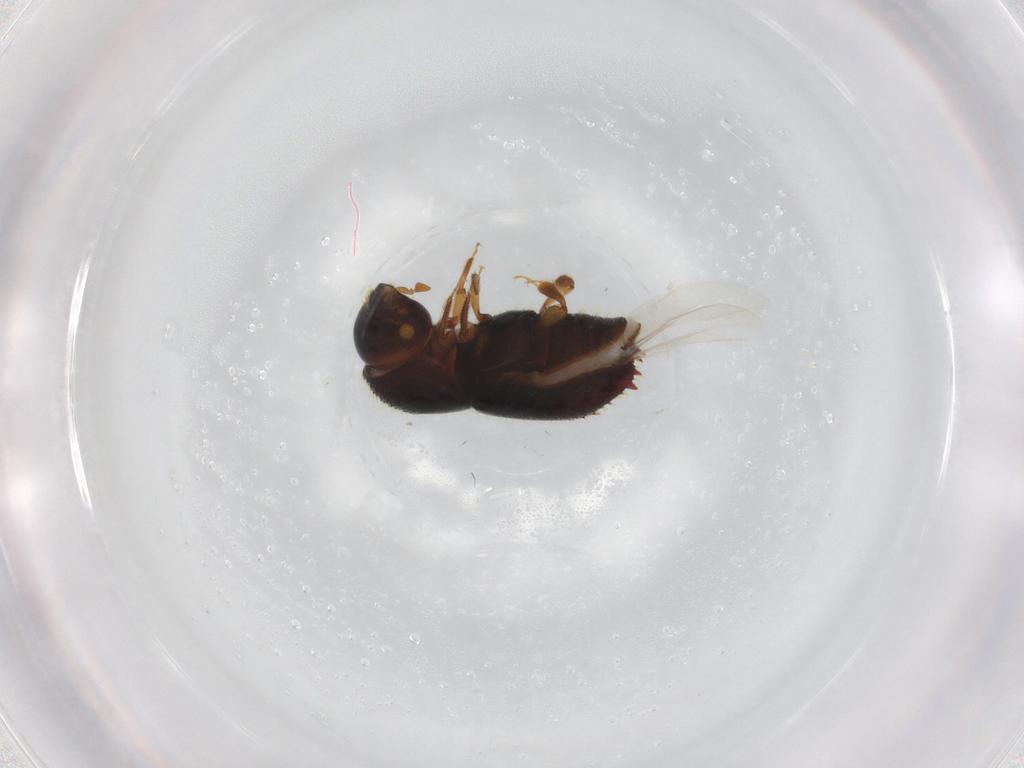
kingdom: Animalia
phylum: Arthropoda
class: Insecta
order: Coleoptera
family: Curculionidae
